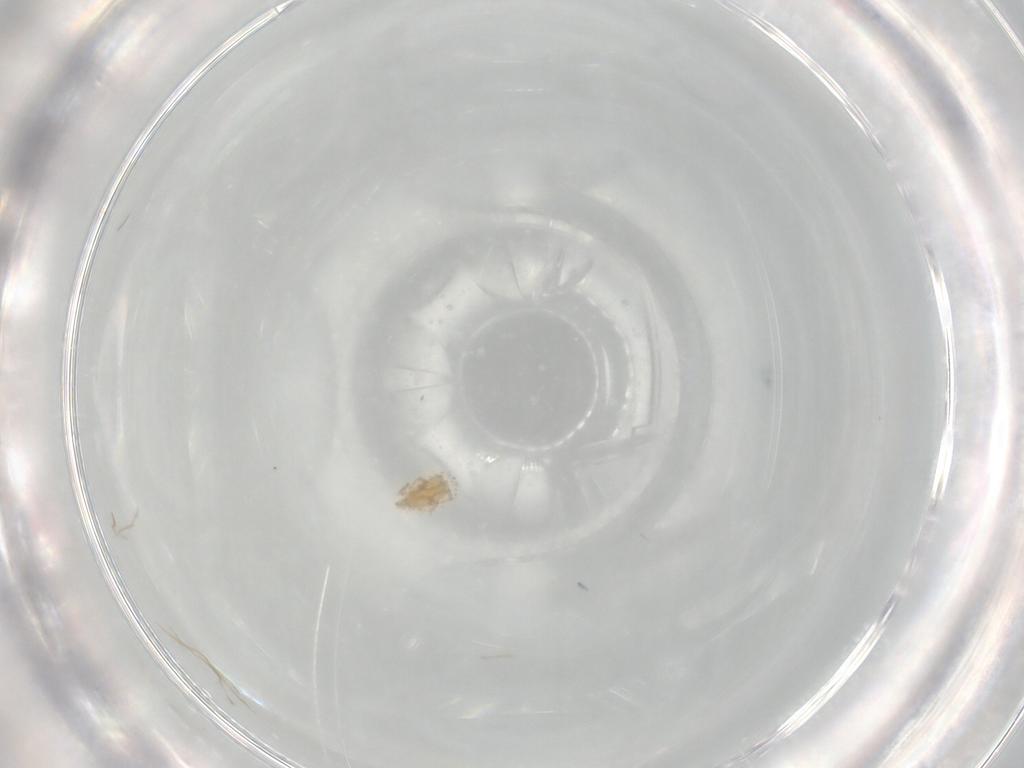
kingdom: Animalia
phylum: Arthropoda
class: Arachnida
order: Trombidiformes
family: Erythraeidae
